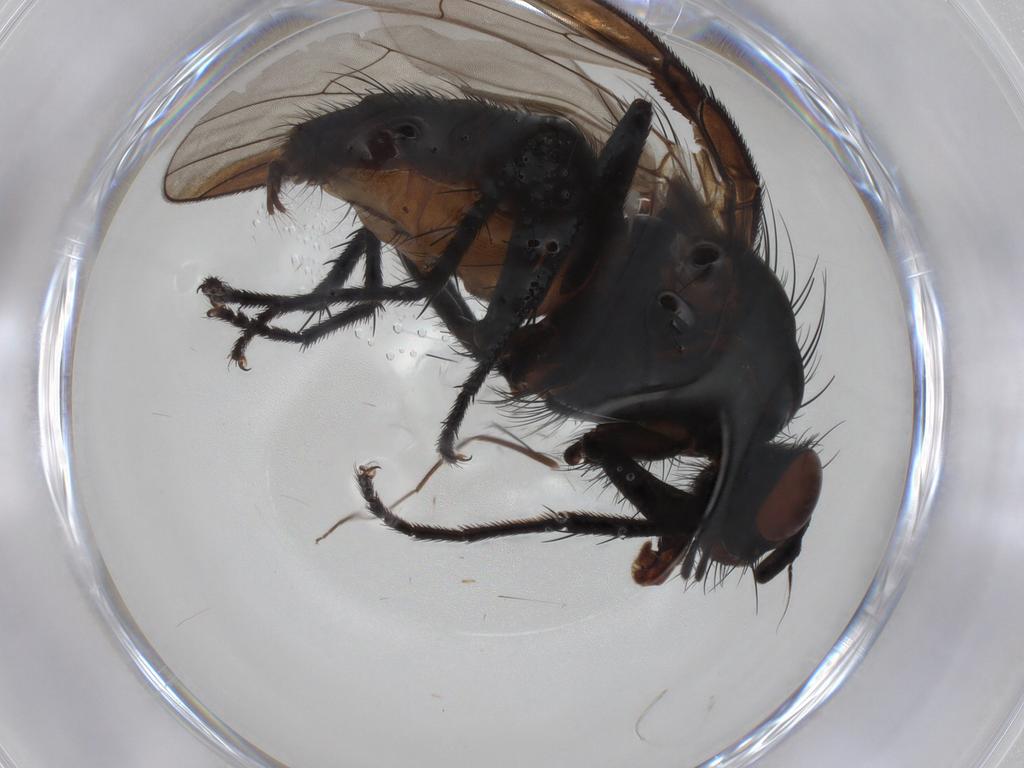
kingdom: Animalia
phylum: Arthropoda
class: Insecta
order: Diptera
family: Anthomyiidae
